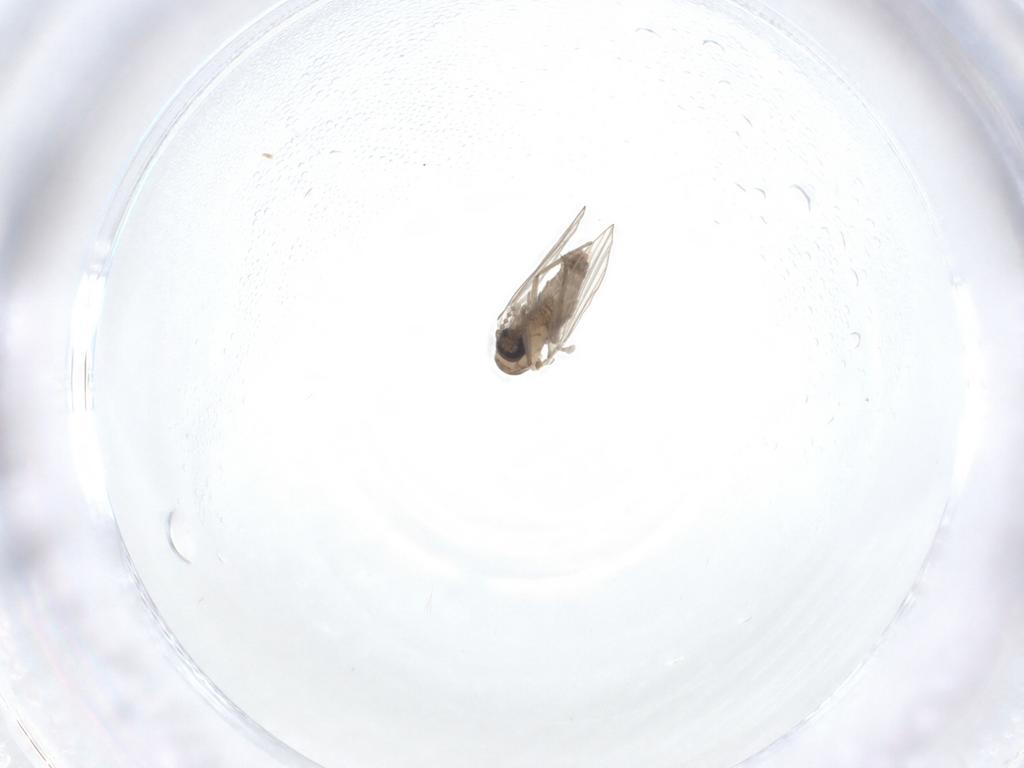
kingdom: Animalia
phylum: Arthropoda
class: Insecta
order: Diptera
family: Psychodidae
